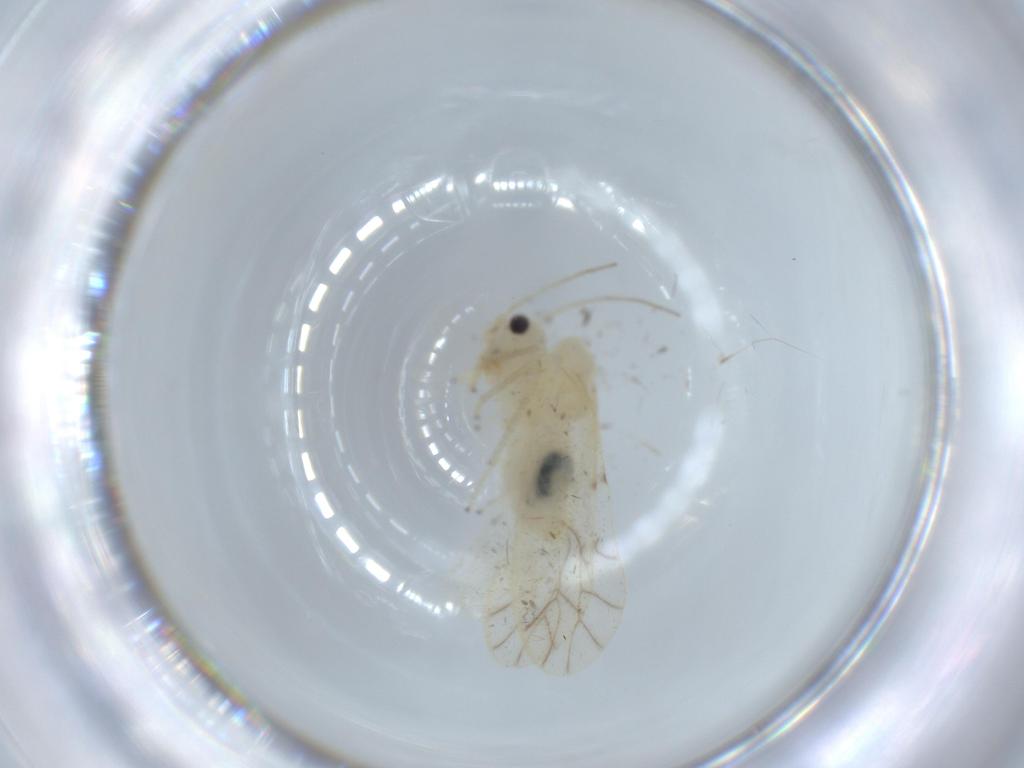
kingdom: Animalia
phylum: Arthropoda
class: Insecta
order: Psocodea
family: Caeciliusidae
